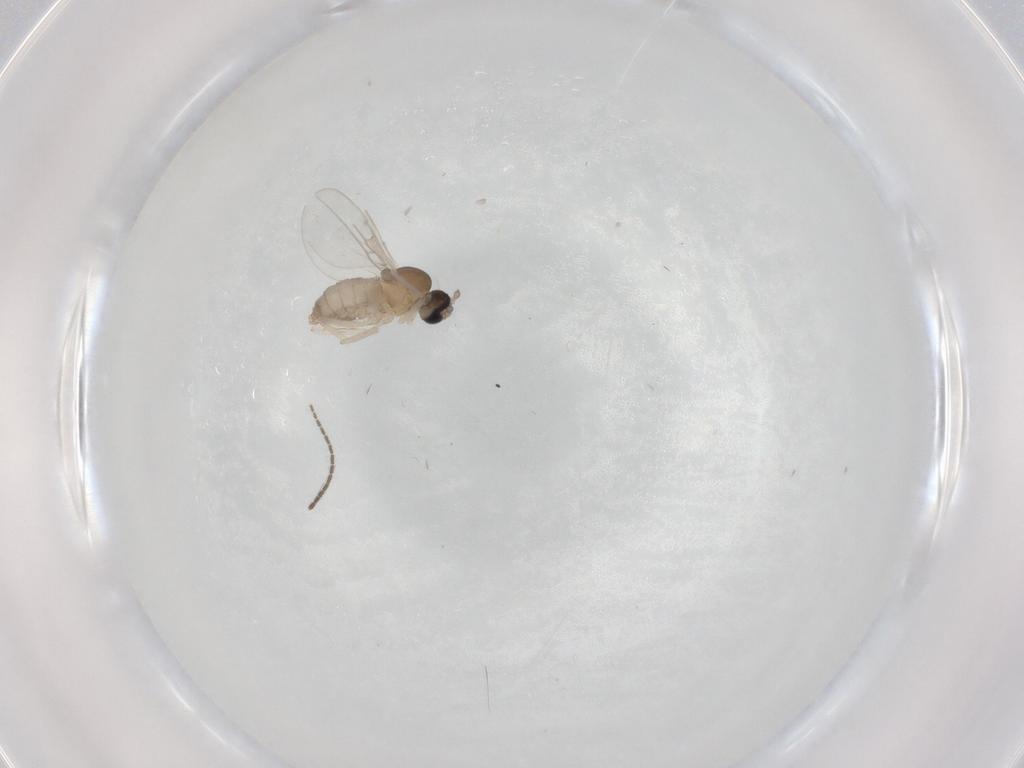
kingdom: Animalia
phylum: Arthropoda
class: Insecta
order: Diptera
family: Cecidomyiidae
